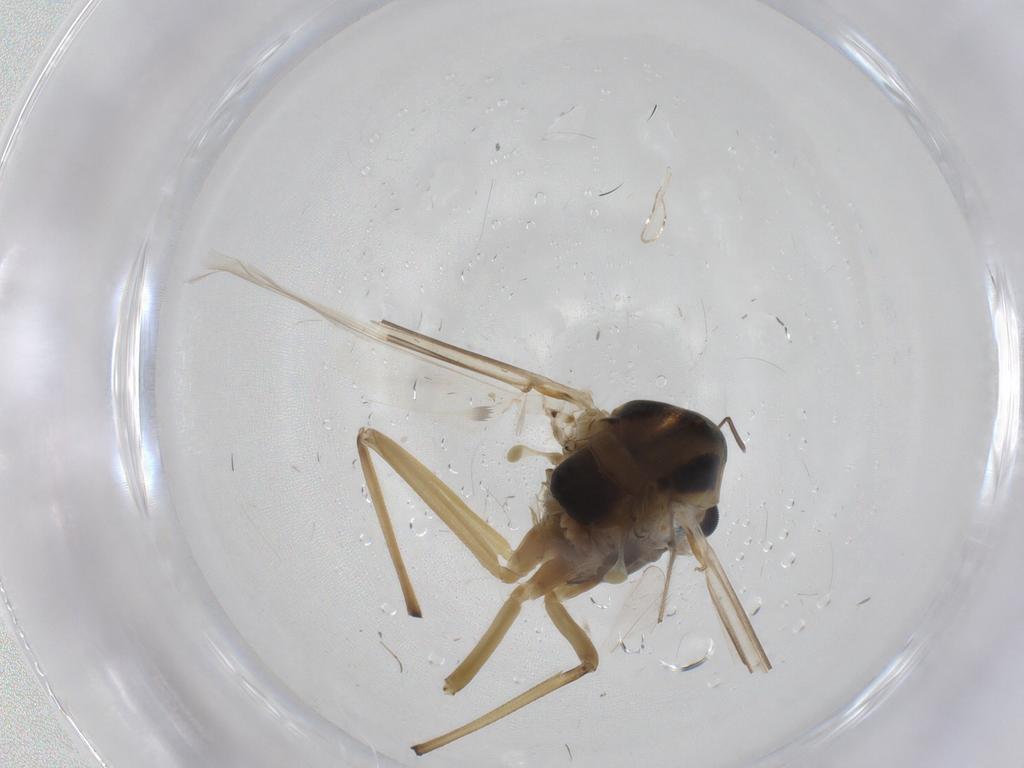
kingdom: Animalia
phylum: Arthropoda
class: Insecta
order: Diptera
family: Chironomidae
